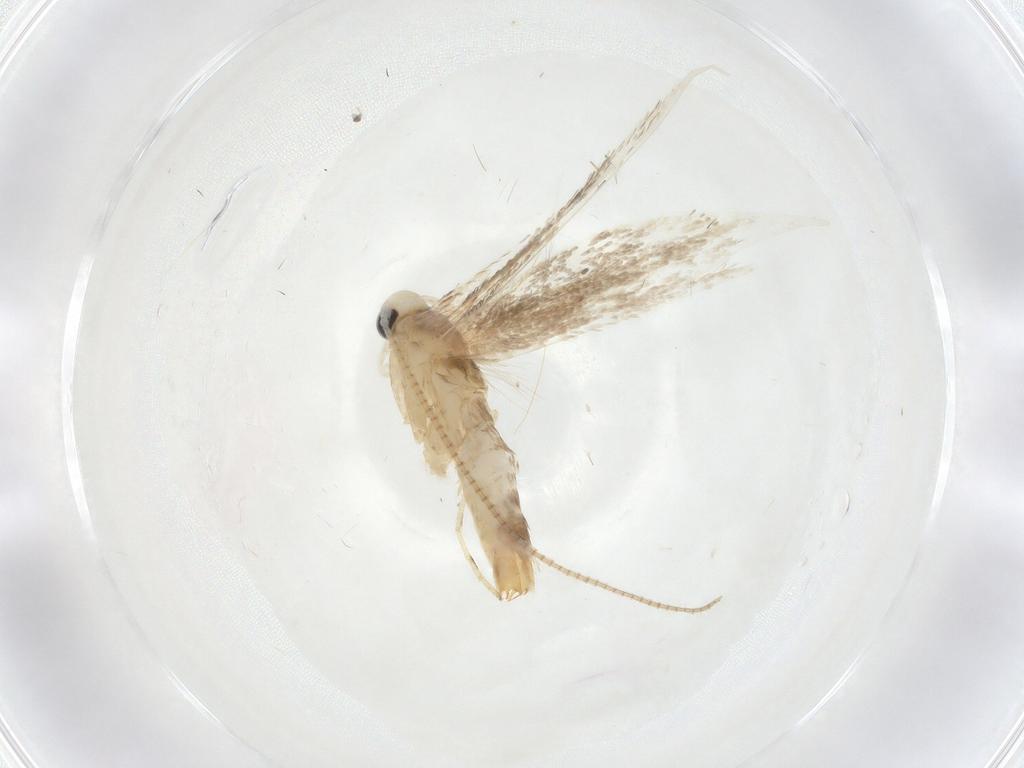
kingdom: Animalia
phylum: Arthropoda
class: Insecta
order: Lepidoptera
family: Gracillariidae
